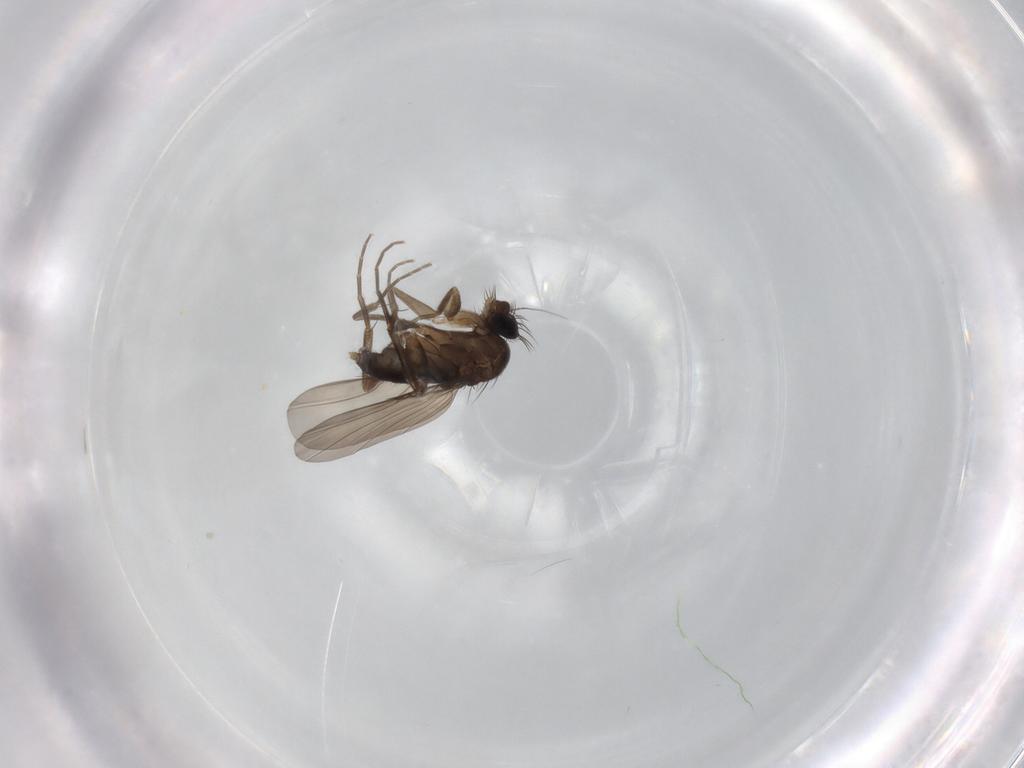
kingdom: Animalia
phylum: Arthropoda
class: Insecta
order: Diptera
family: Phoridae
